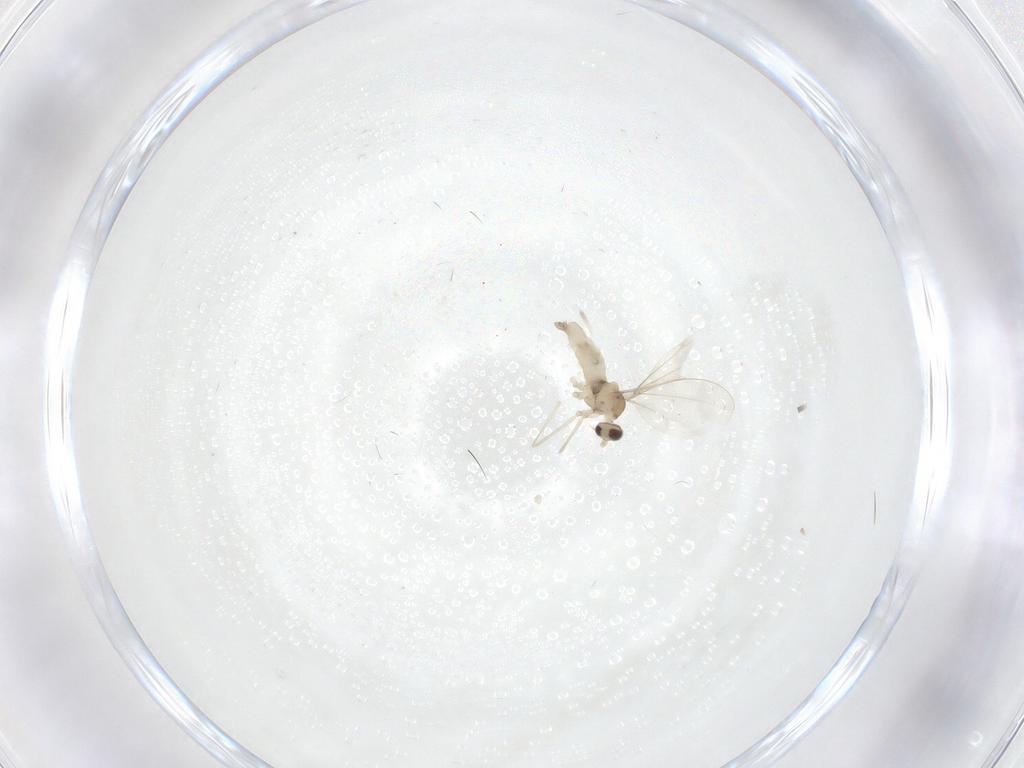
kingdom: Animalia
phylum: Arthropoda
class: Insecta
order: Diptera
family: Cecidomyiidae
